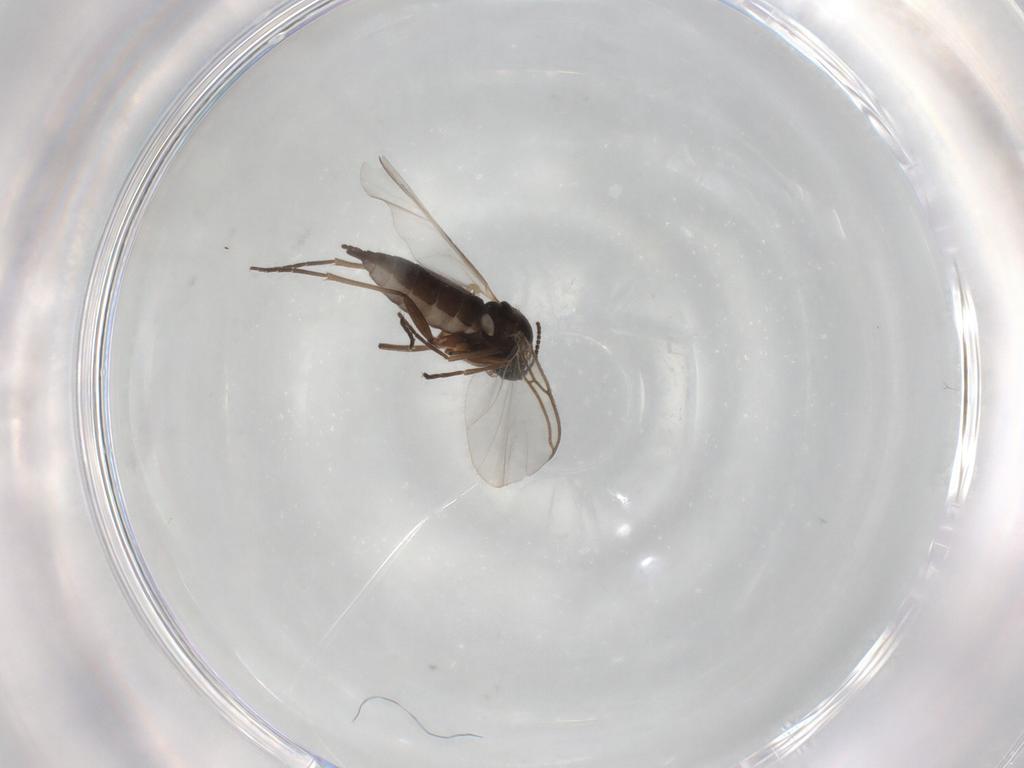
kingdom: Animalia
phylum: Arthropoda
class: Insecta
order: Diptera
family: Sciaridae
